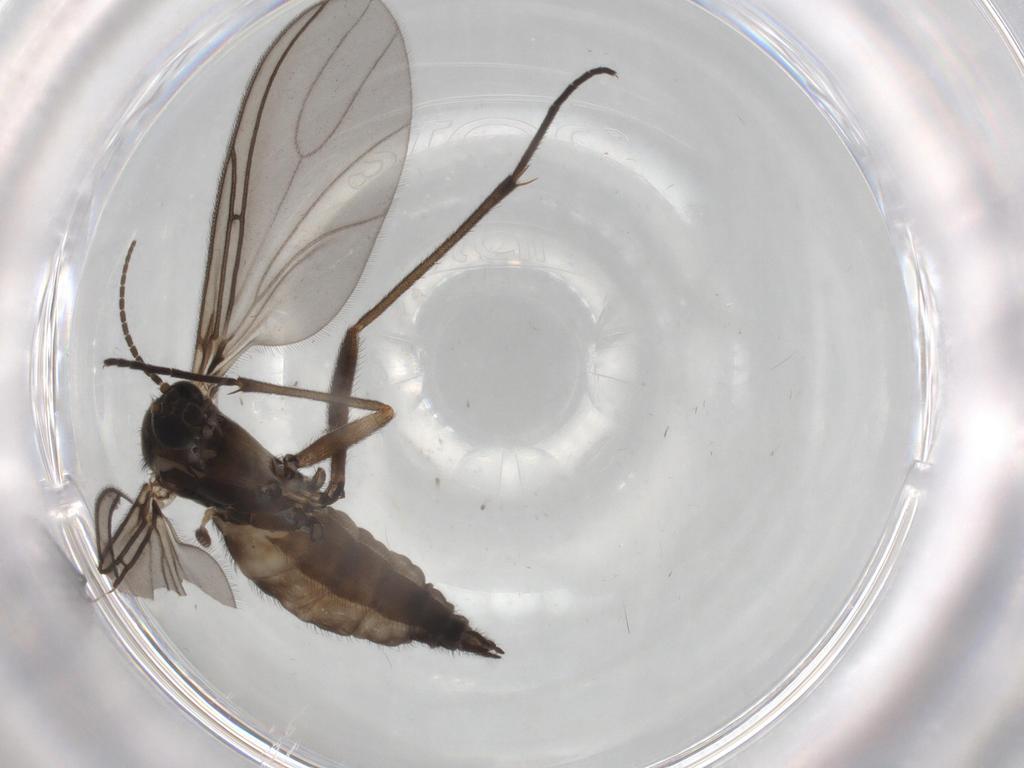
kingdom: Animalia
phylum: Arthropoda
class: Insecta
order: Diptera
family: Sciaridae
